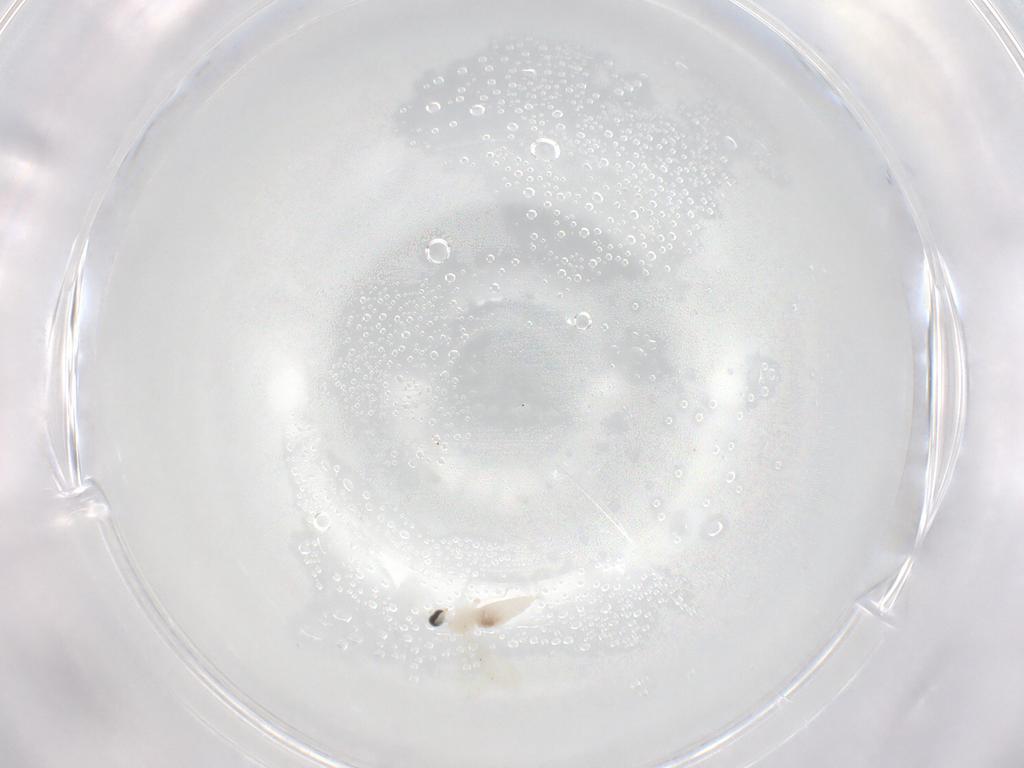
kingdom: Animalia
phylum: Arthropoda
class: Insecta
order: Diptera
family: Cecidomyiidae
